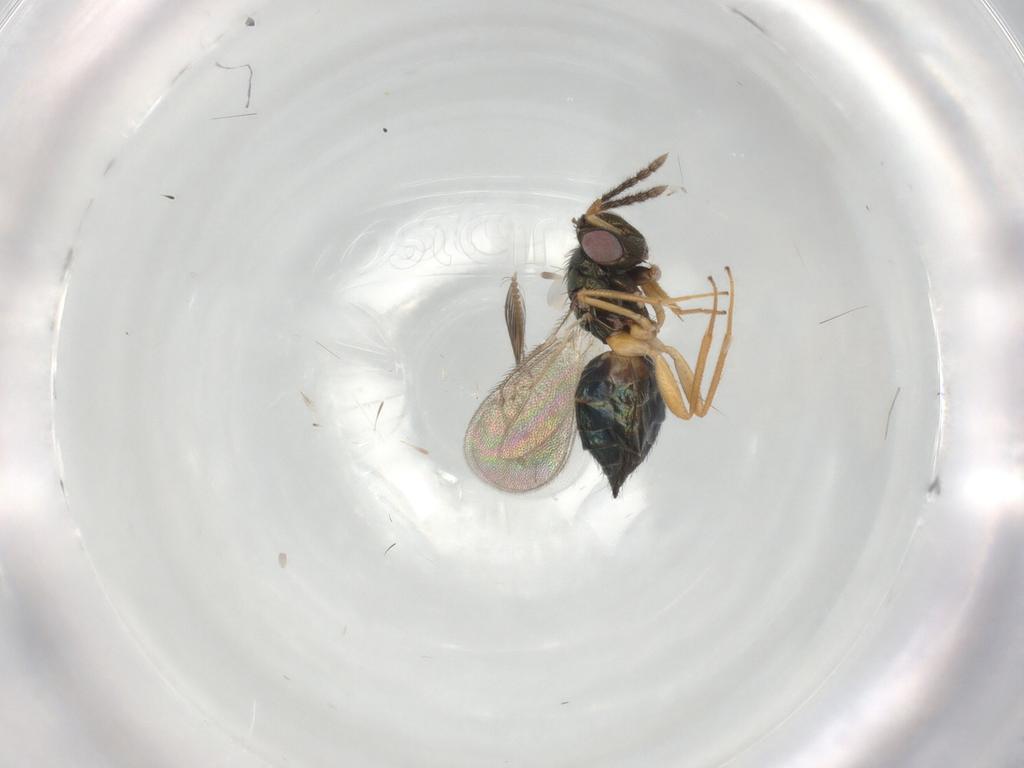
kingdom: Animalia
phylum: Arthropoda
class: Insecta
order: Hymenoptera
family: Eulophidae
